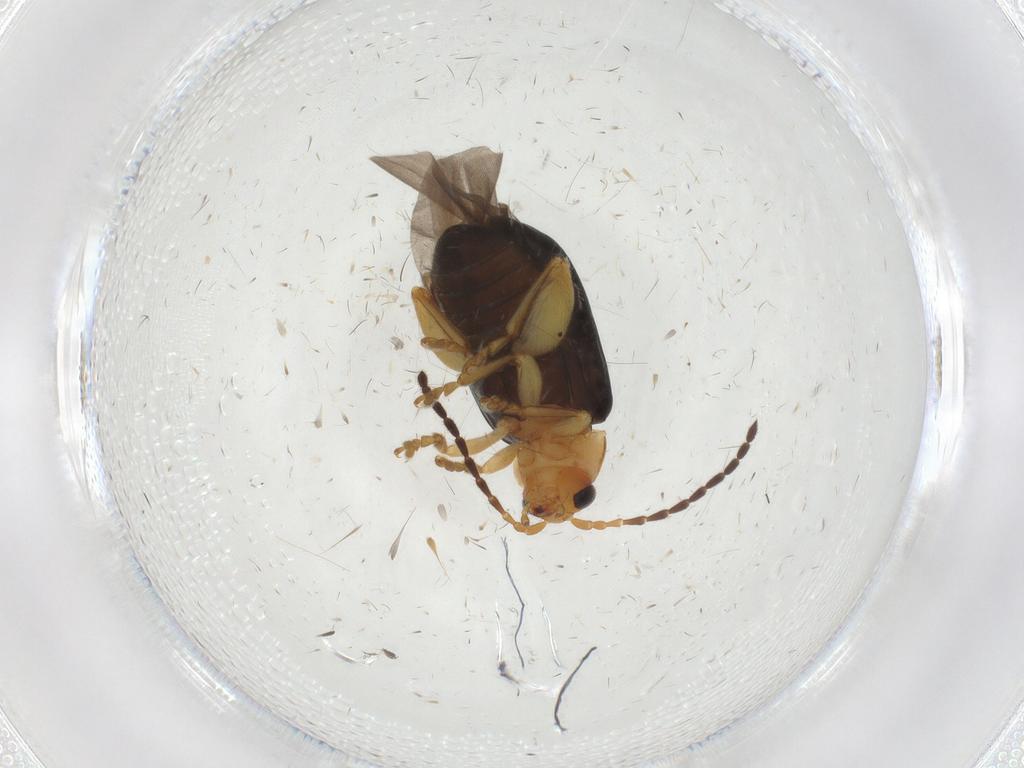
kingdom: Animalia
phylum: Arthropoda
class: Insecta
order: Coleoptera
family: Chrysomelidae
